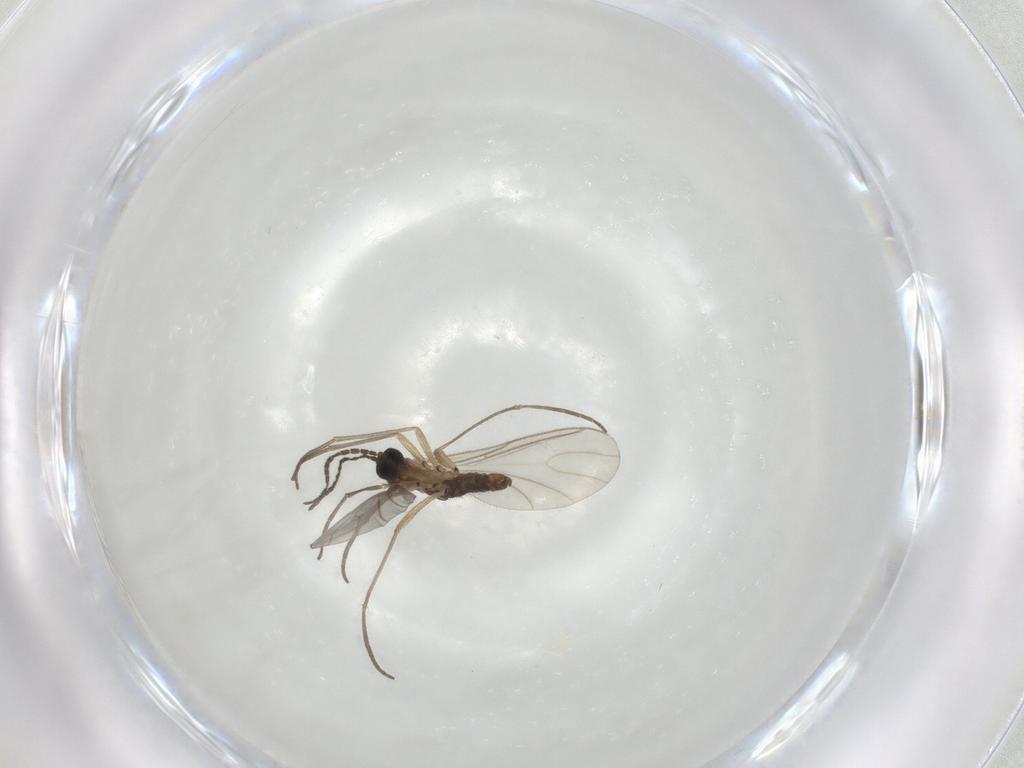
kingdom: Animalia
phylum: Arthropoda
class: Insecta
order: Diptera
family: Sciaridae
